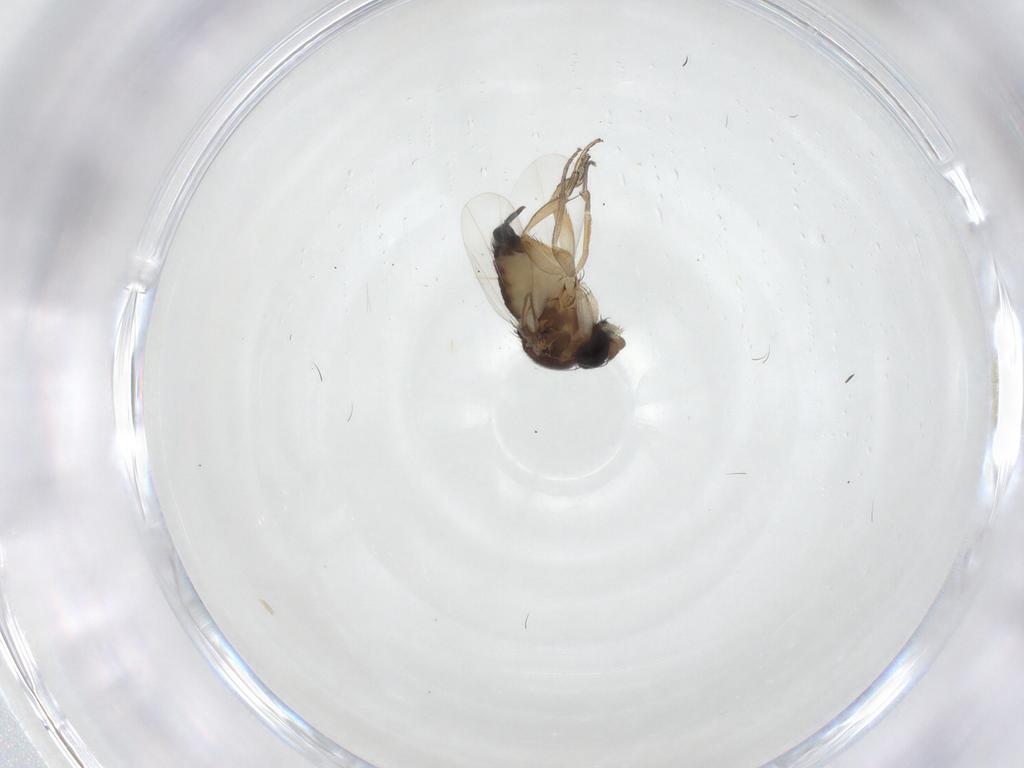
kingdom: Animalia
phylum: Arthropoda
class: Insecta
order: Diptera
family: Phoridae
